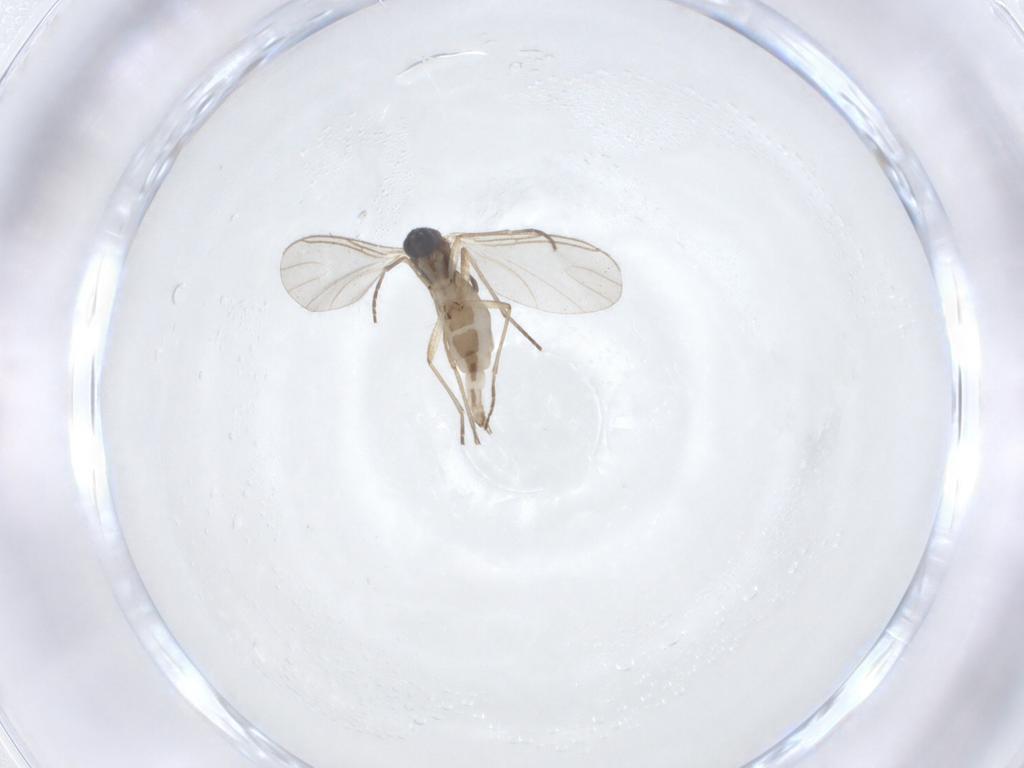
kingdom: Animalia
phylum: Arthropoda
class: Insecta
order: Diptera
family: Sciaridae
